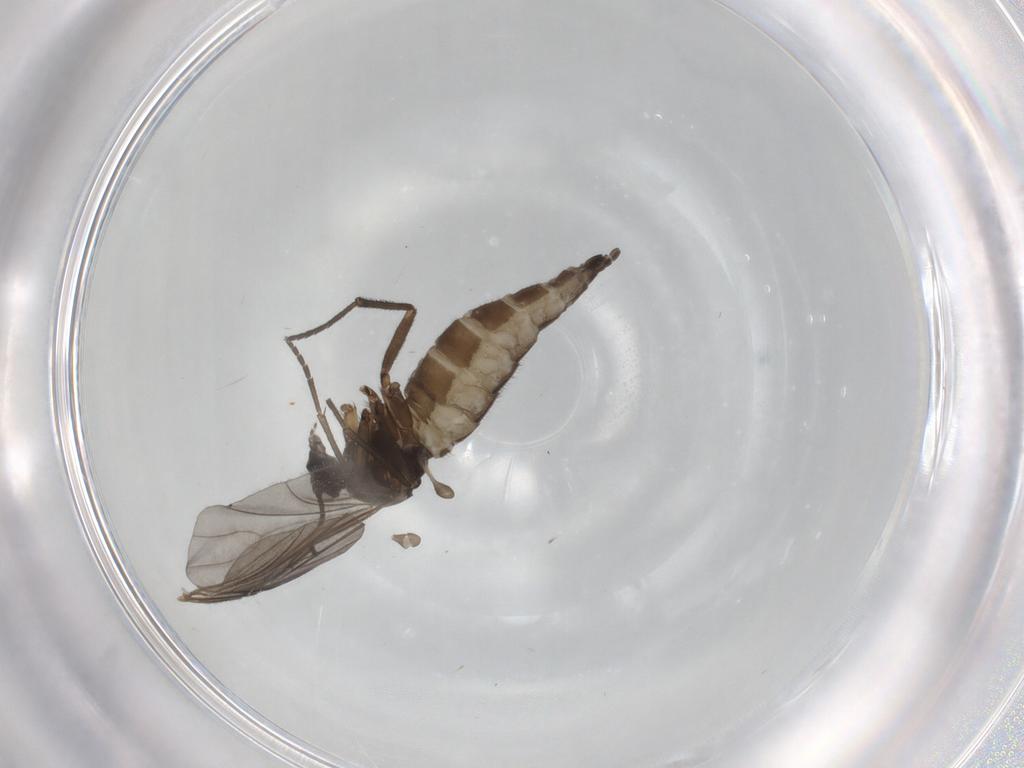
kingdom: Animalia
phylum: Arthropoda
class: Insecta
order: Diptera
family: Sciaridae
